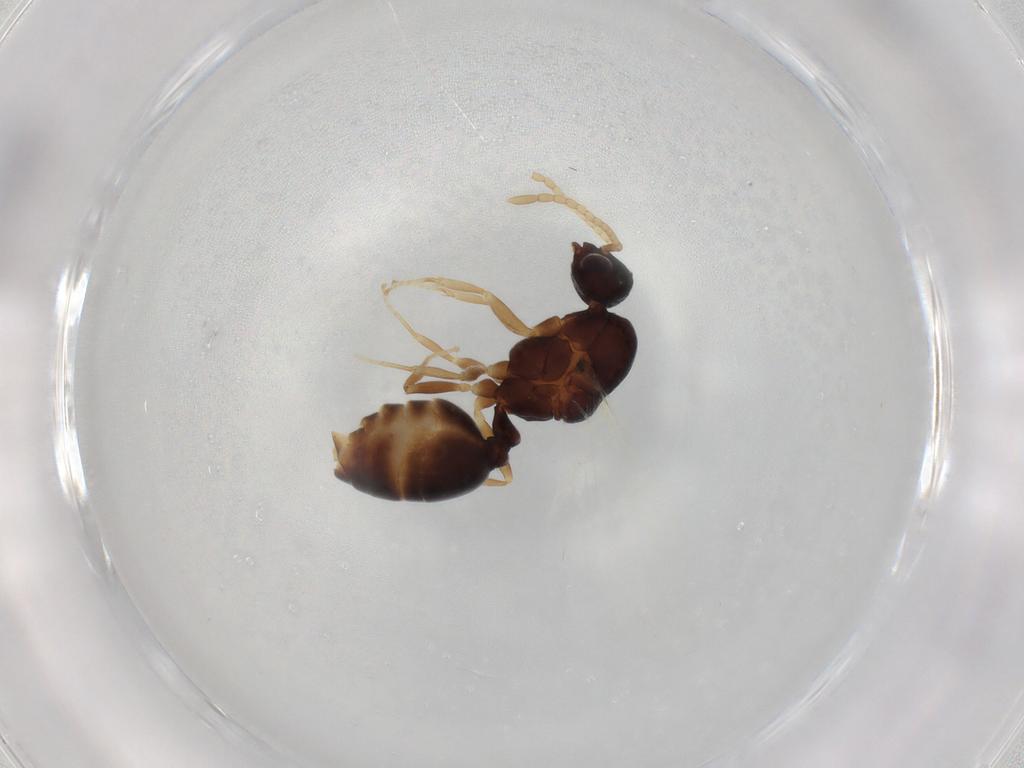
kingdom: Animalia
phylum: Arthropoda
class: Insecta
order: Hymenoptera
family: Formicidae
